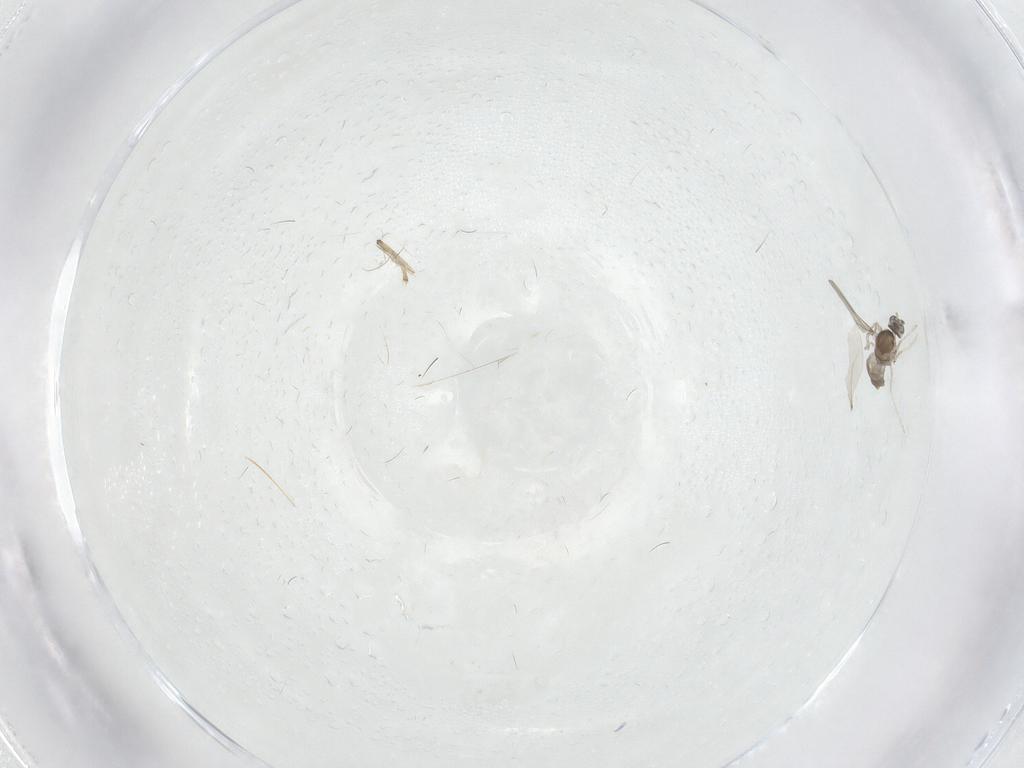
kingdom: Animalia
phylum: Arthropoda
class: Insecta
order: Diptera
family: Cecidomyiidae
